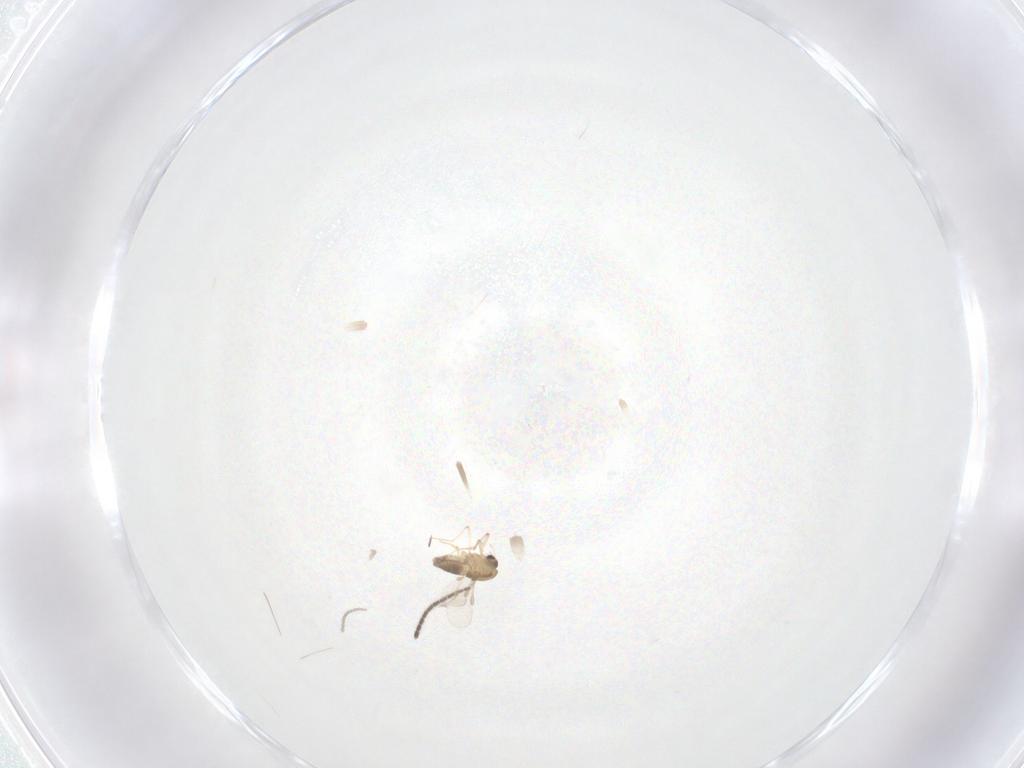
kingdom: Animalia
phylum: Arthropoda
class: Insecta
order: Diptera
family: Chironomidae
